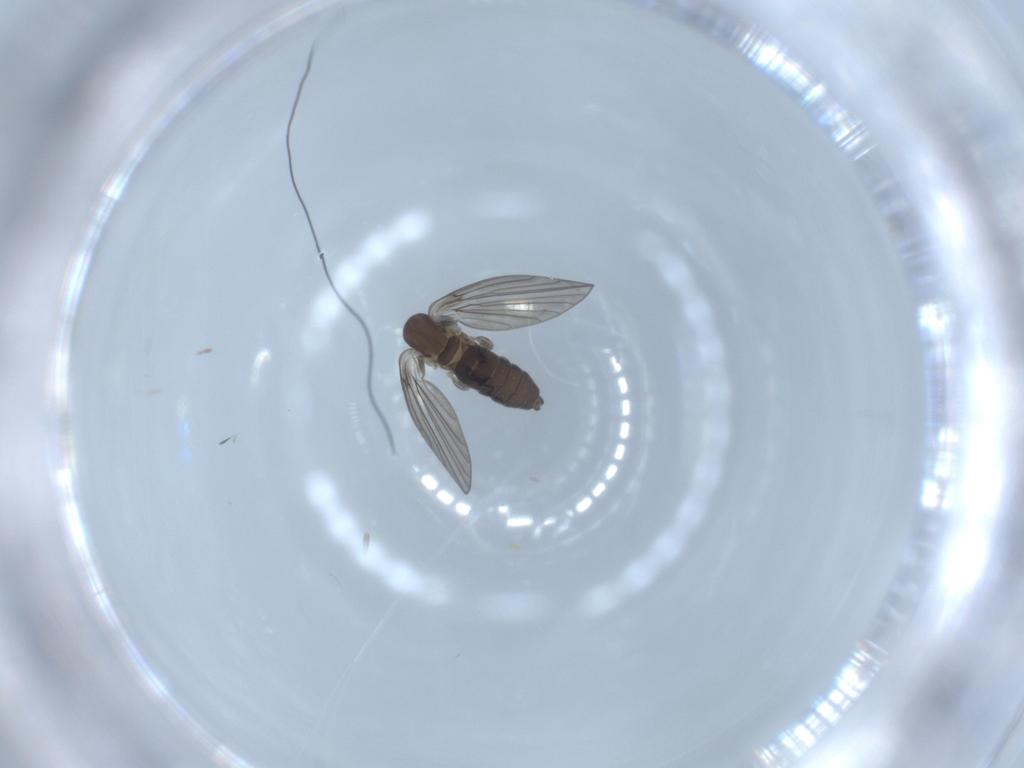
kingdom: Animalia
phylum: Arthropoda
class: Insecta
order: Diptera
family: Psychodidae
